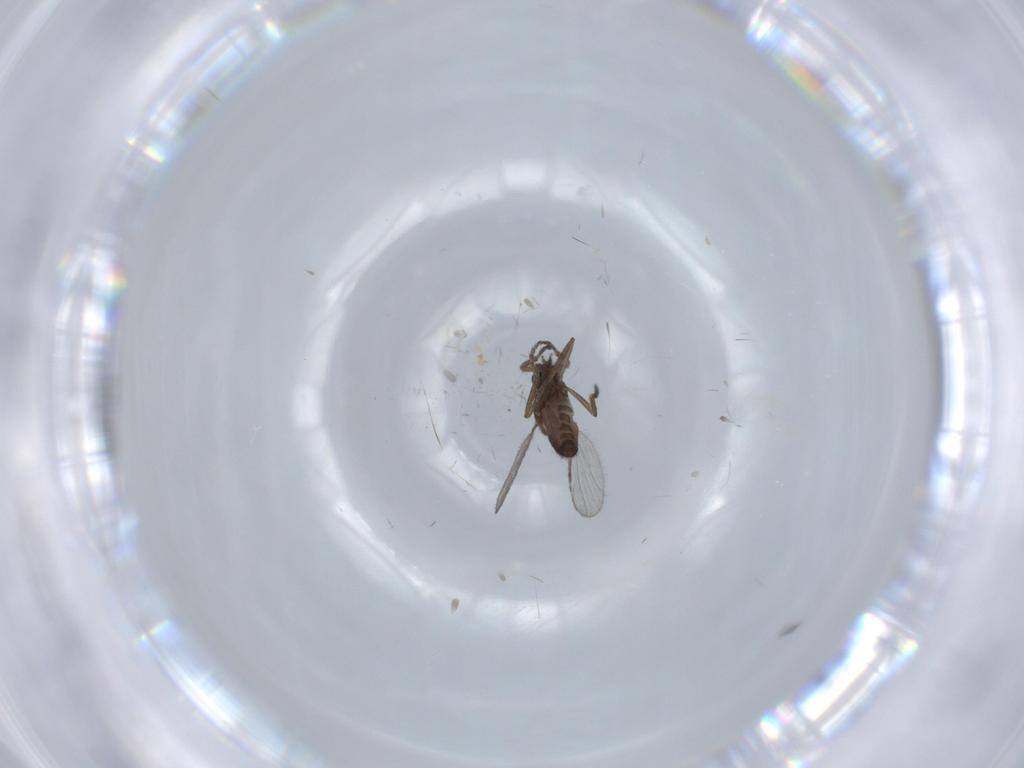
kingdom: Animalia
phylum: Arthropoda
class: Insecta
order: Diptera
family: Ceratopogonidae
